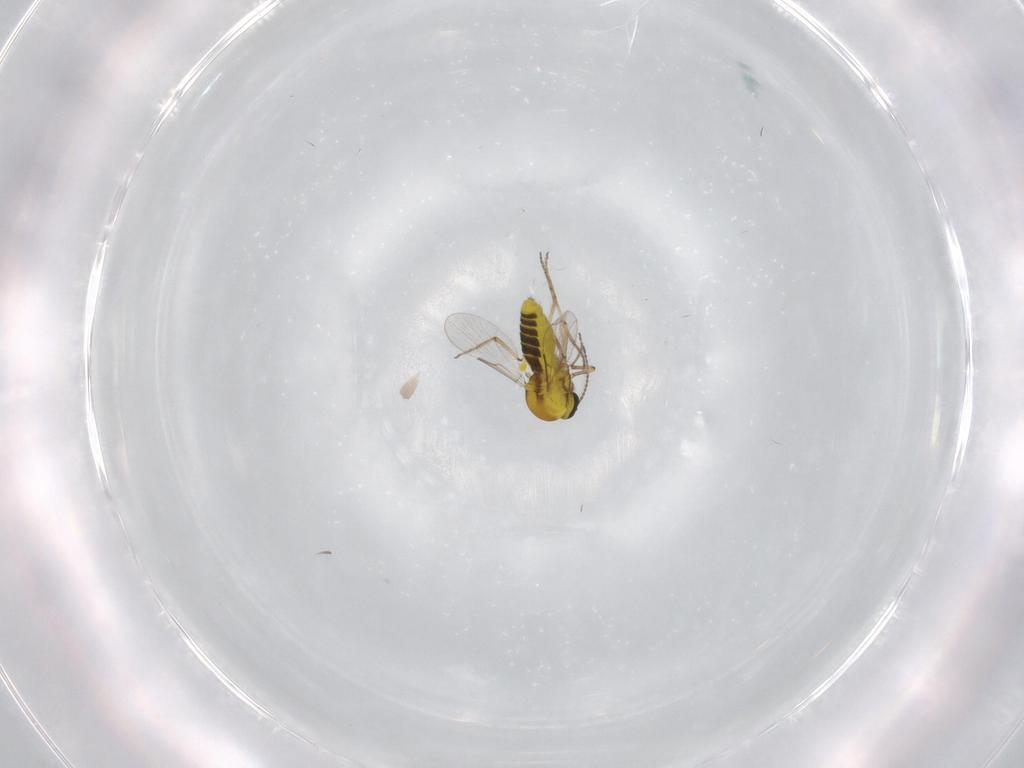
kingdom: Animalia
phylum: Arthropoda
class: Insecta
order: Diptera
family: Ceratopogonidae
